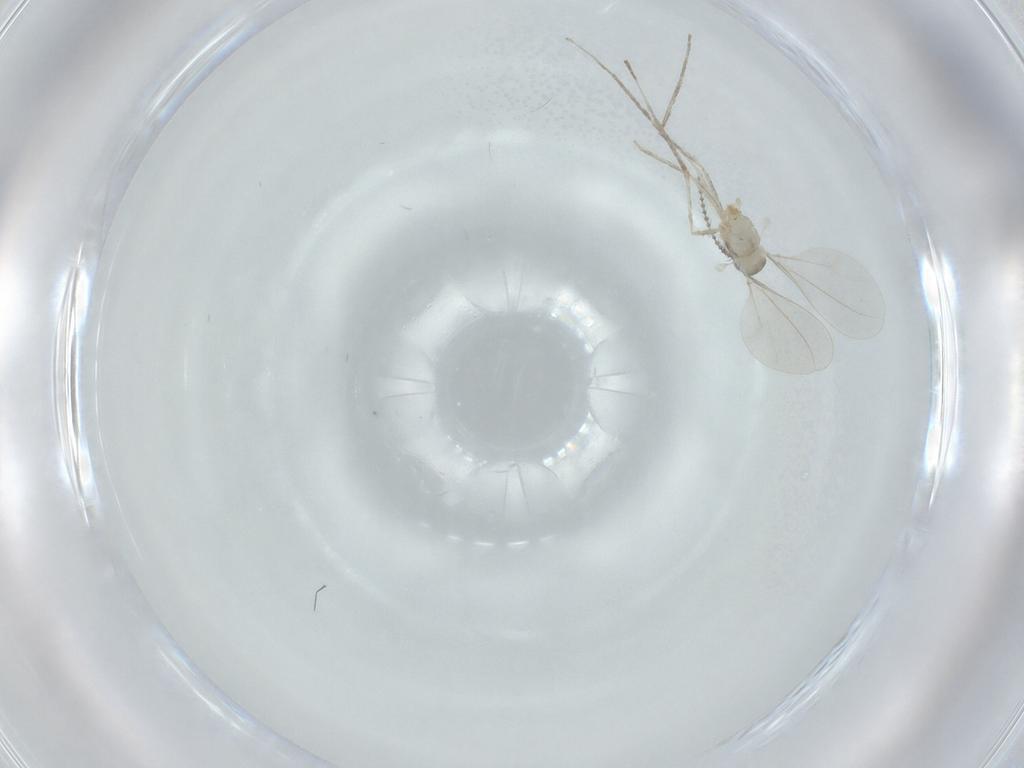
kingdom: Animalia
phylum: Arthropoda
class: Insecta
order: Diptera
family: Cecidomyiidae
